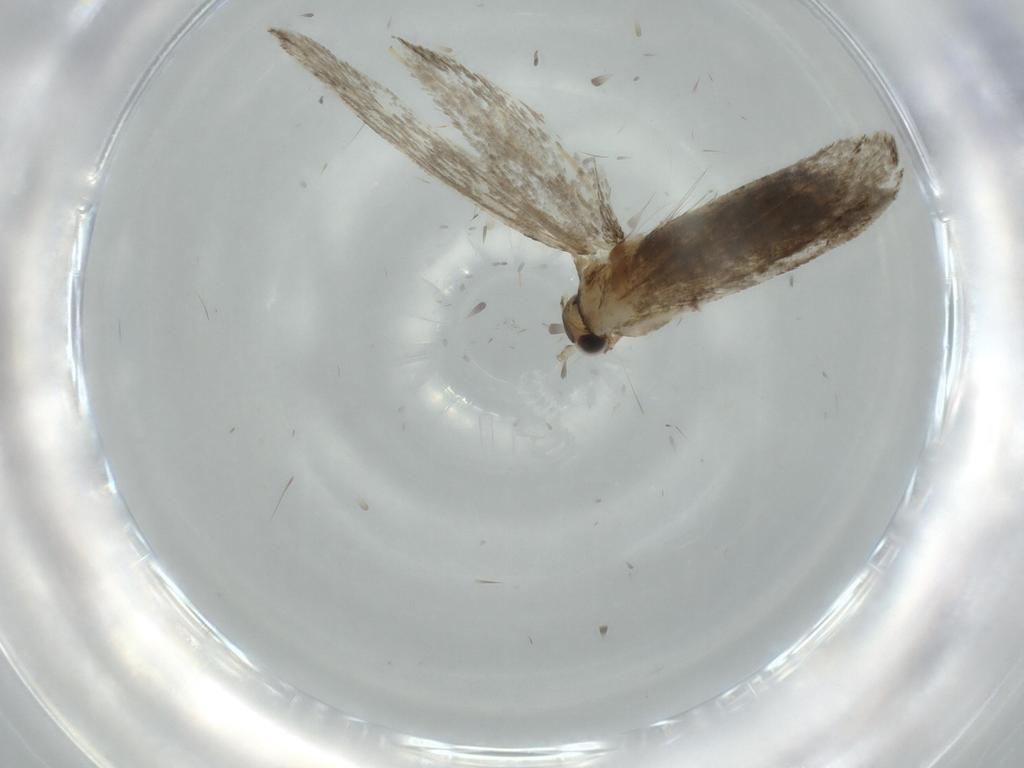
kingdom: Animalia
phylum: Arthropoda
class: Insecta
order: Lepidoptera
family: Tineidae
